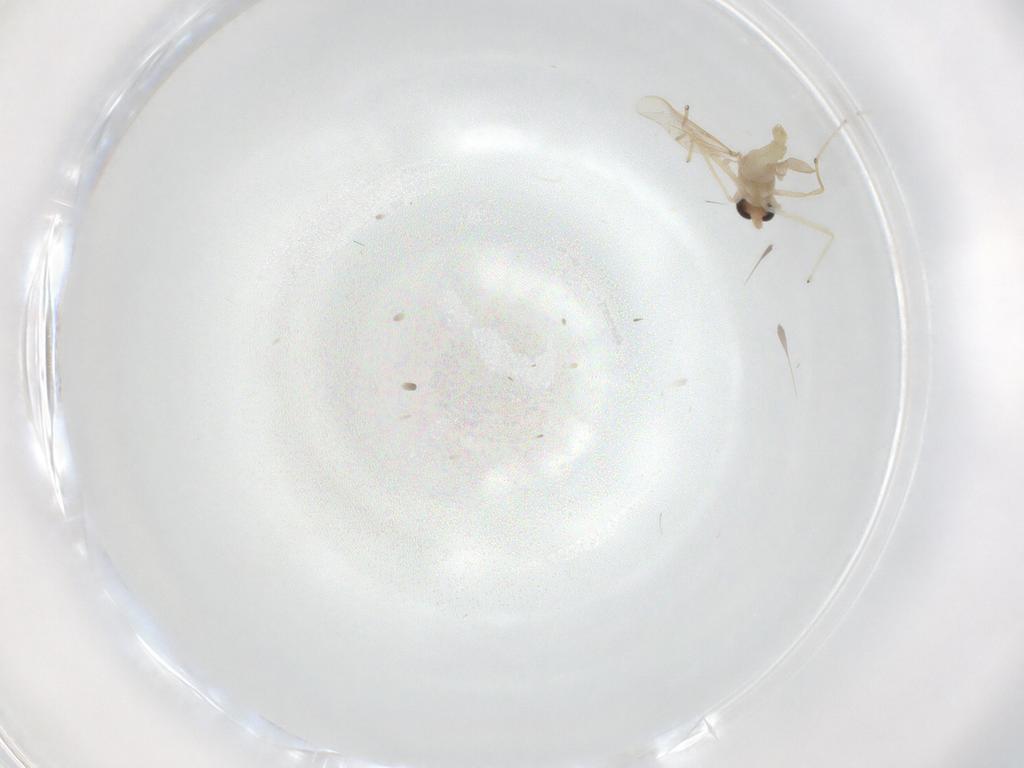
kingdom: Animalia
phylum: Arthropoda
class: Insecta
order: Diptera
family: Chironomidae
